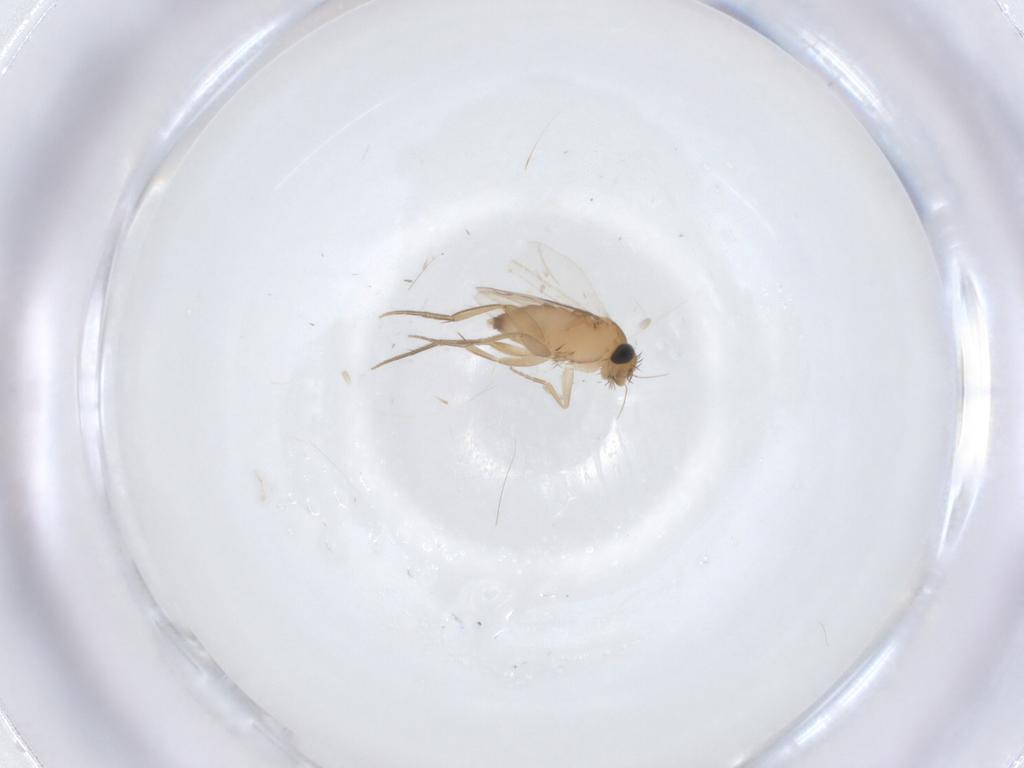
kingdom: Animalia
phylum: Arthropoda
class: Insecta
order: Diptera
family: Phoridae
